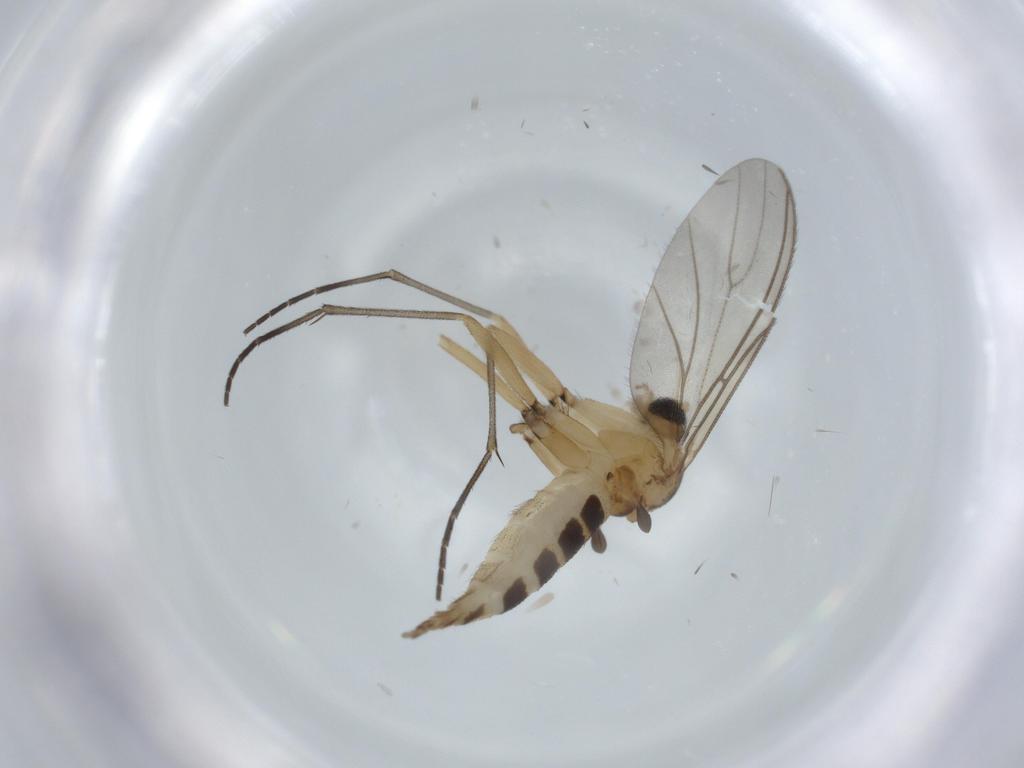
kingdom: Animalia
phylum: Arthropoda
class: Insecta
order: Diptera
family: Sciaridae
